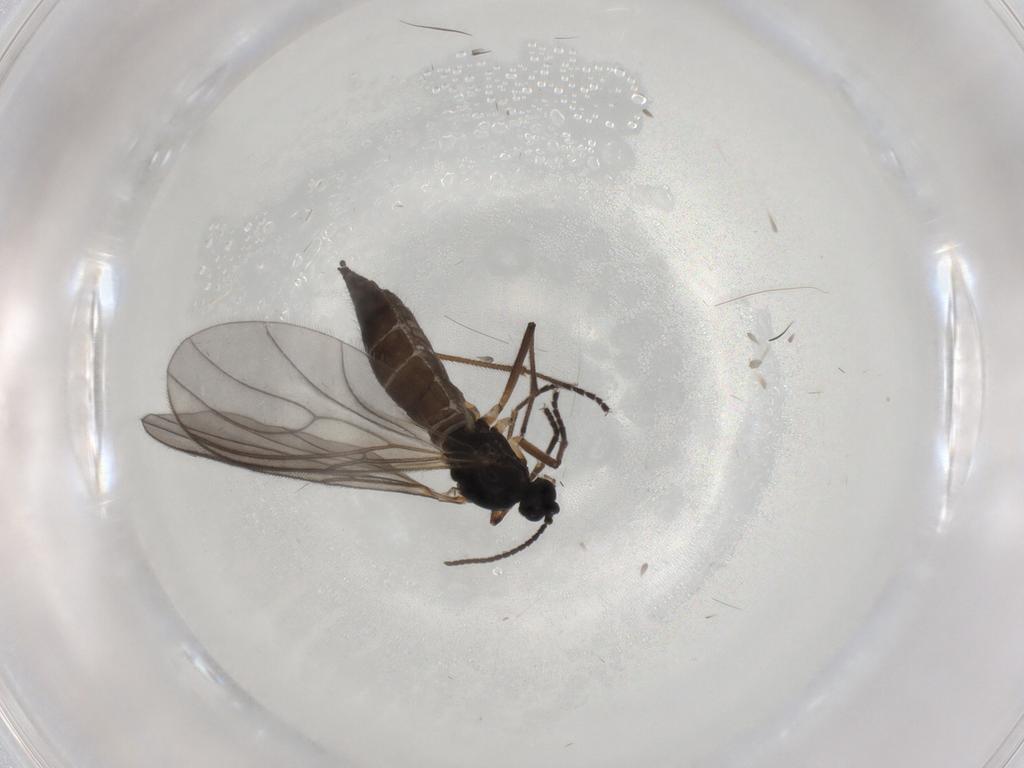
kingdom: Animalia
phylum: Arthropoda
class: Insecta
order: Diptera
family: Sciaridae
